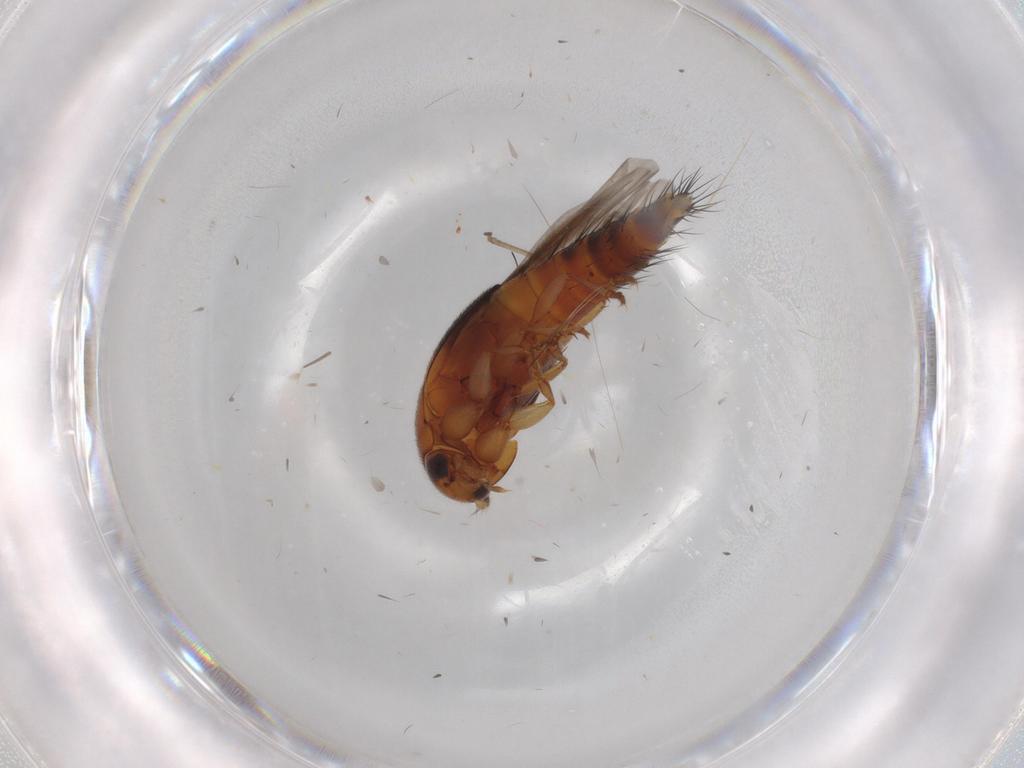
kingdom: Animalia
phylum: Arthropoda
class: Insecta
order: Coleoptera
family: Staphylinidae
